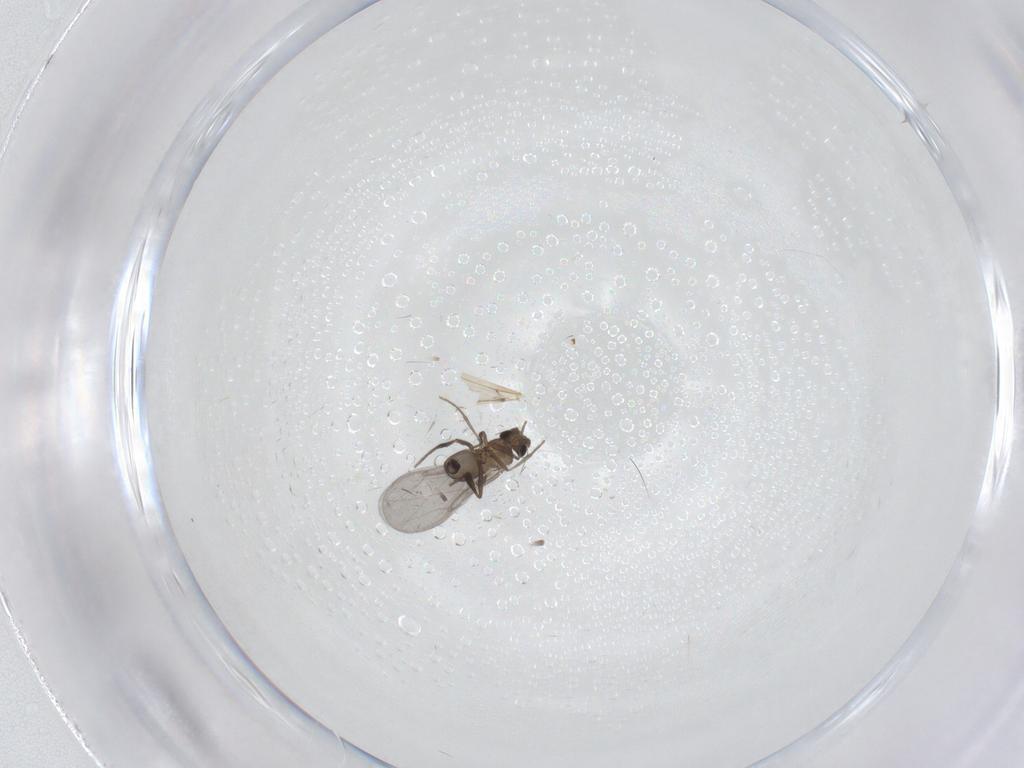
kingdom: Animalia
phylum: Arthropoda
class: Insecta
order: Diptera
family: Phoridae
